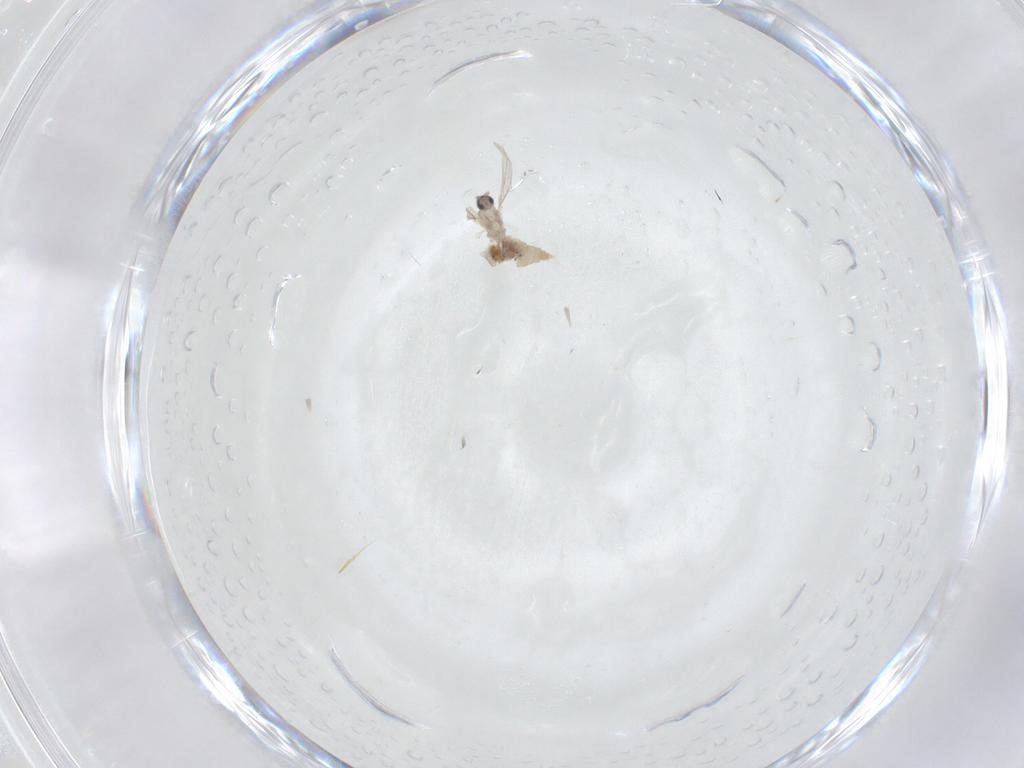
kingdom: Animalia
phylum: Arthropoda
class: Insecta
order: Diptera
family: Cecidomyiidae
